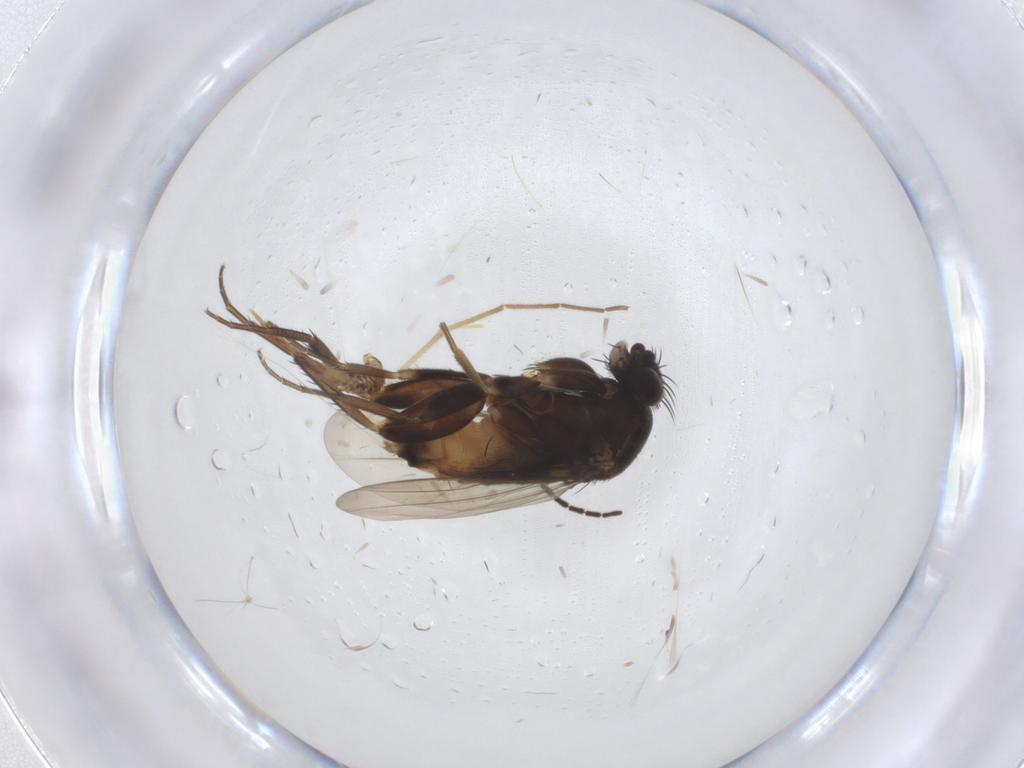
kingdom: Animalia
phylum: Arthropoda
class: Insecta
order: Diptera
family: Phoridae
